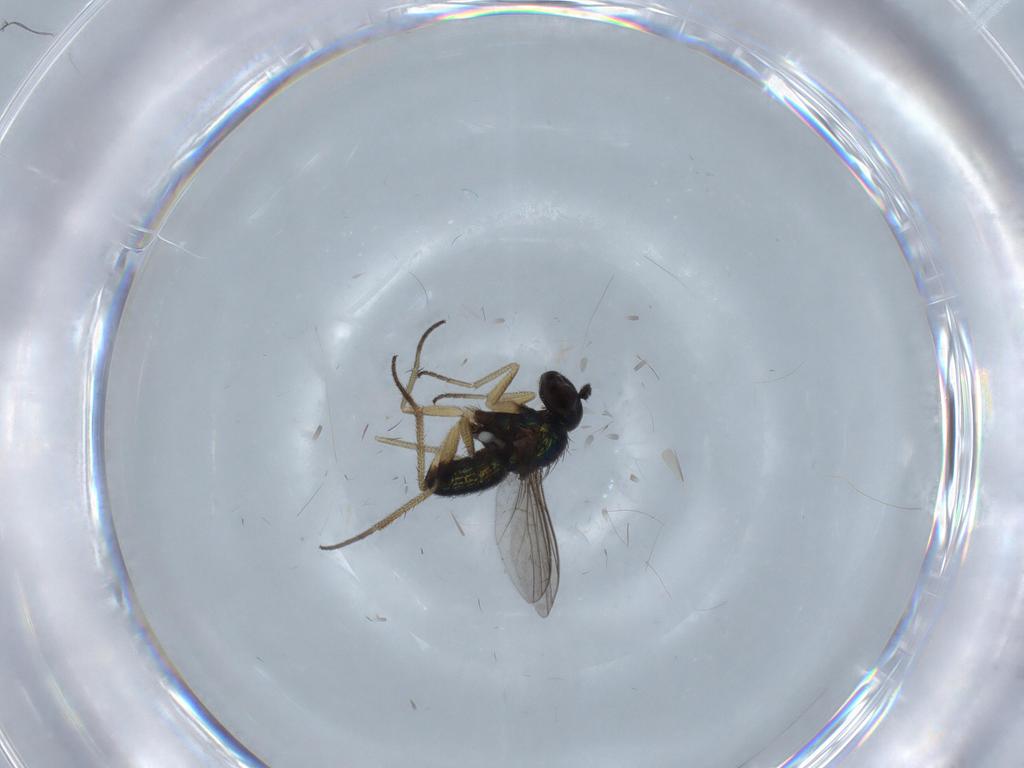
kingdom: Animalia
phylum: Arthropoda
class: Insecta
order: Diptera
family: Dolichopodidae
